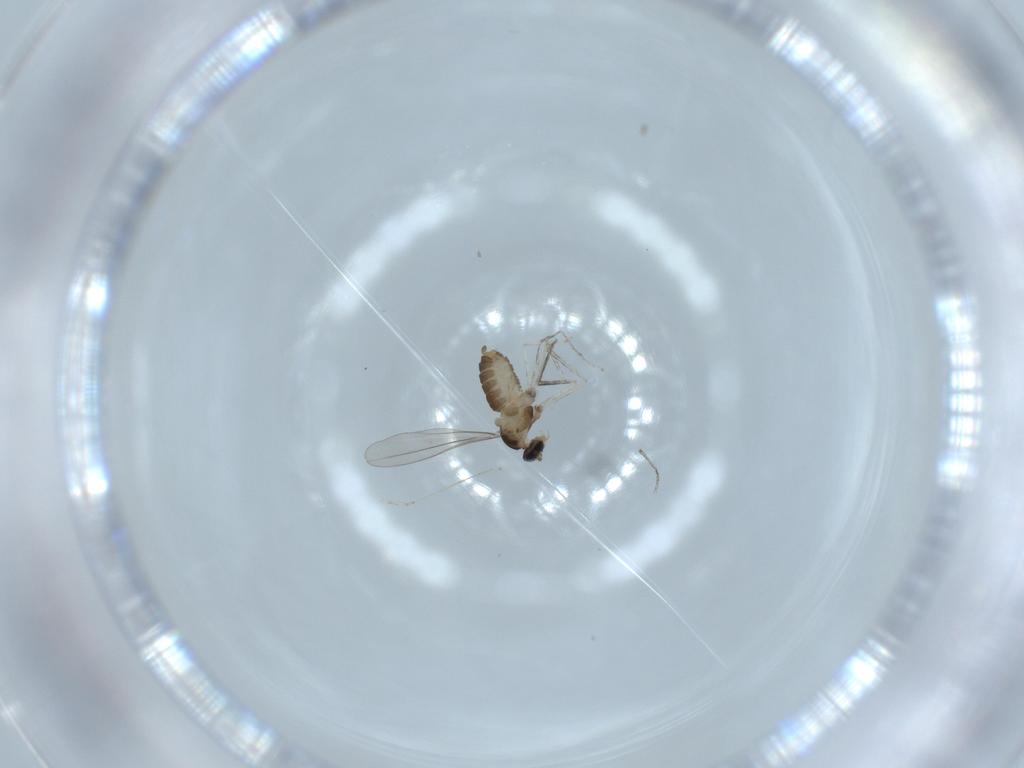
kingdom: Animalia
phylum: Arthropoda
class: Insecta
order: Diptera
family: Cecidomyiidae
